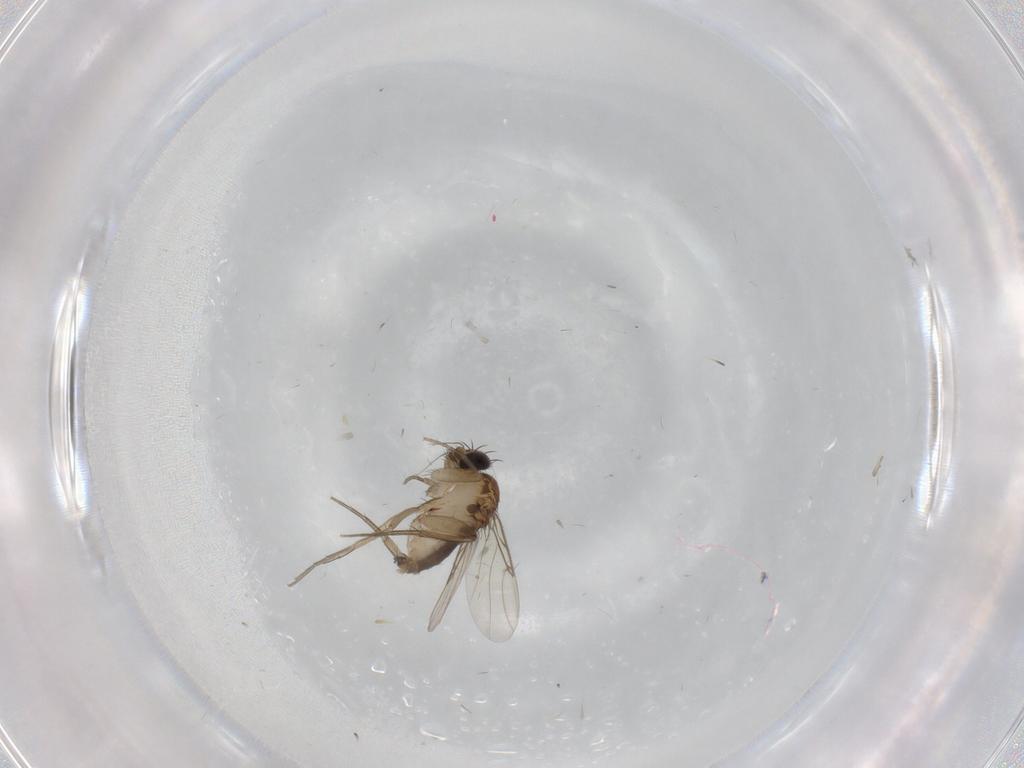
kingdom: Animalia
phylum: Arthropoda
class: Insecta
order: Diptera
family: Phoridae
